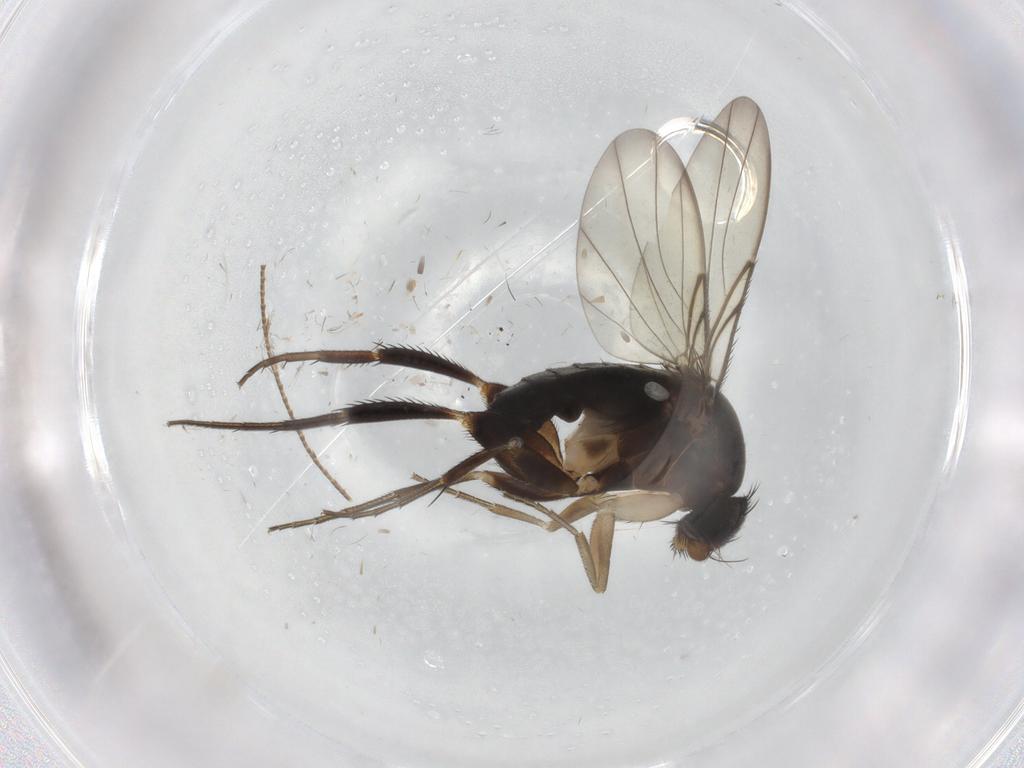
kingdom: Animalia
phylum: Arthropoda
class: Insecta
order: Diptera
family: Phoridae
